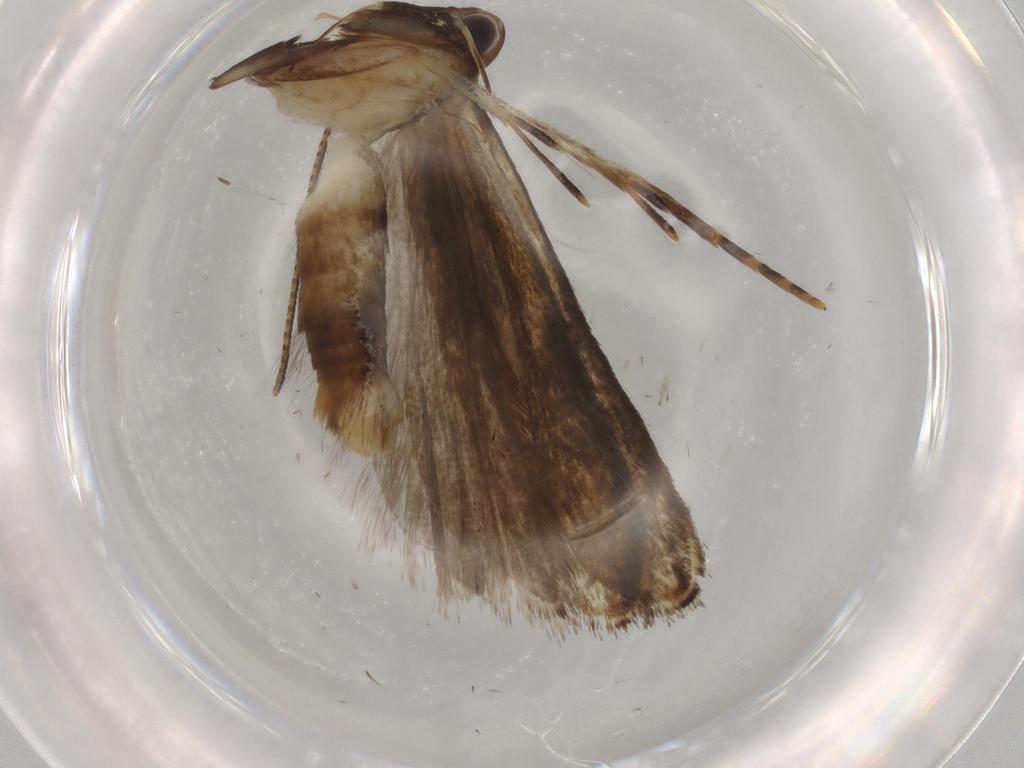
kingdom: Animalia
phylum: Arthropoda
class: Insecta
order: Lepidoptera
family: Gelechiidae
